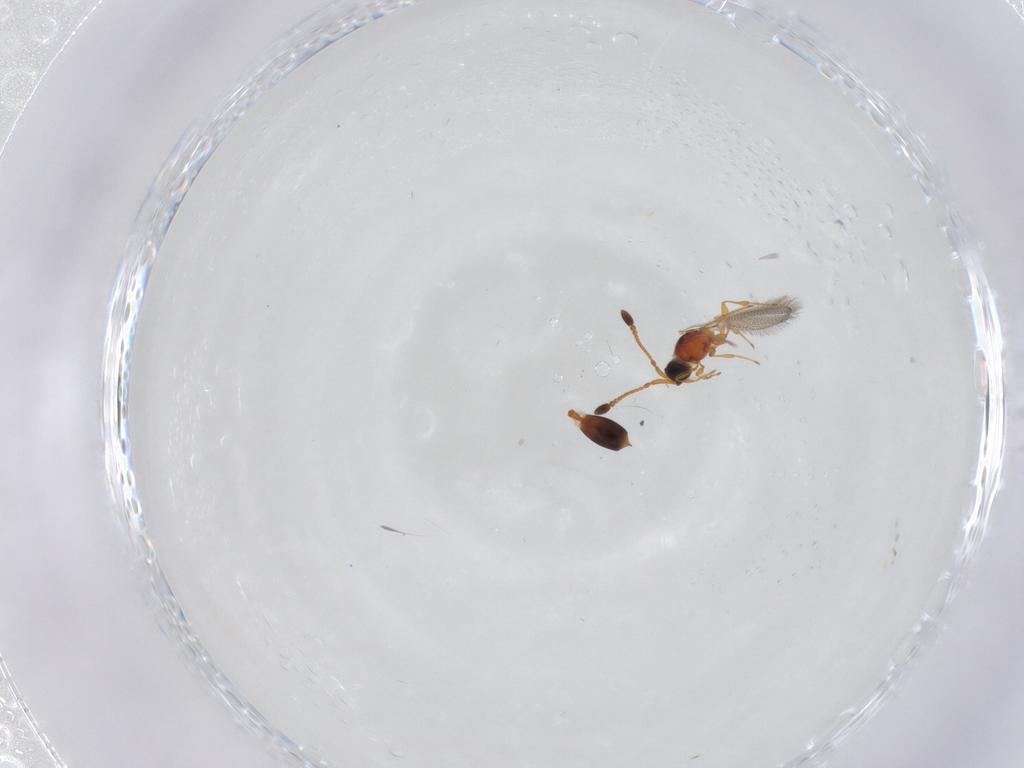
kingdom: Animalia
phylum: Arthropoda
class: Insecta
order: Hymenoptera
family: Diapriidae
